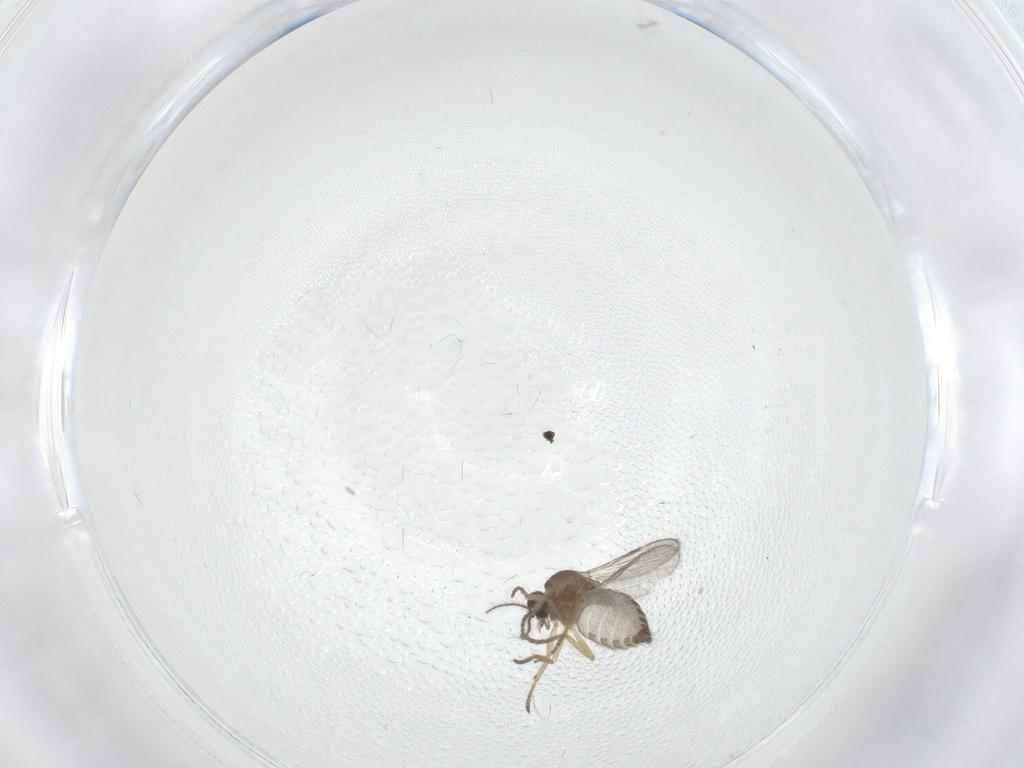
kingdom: Animalia
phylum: Arthropoda
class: Insecta
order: Diptera
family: Ceratopogonidae
